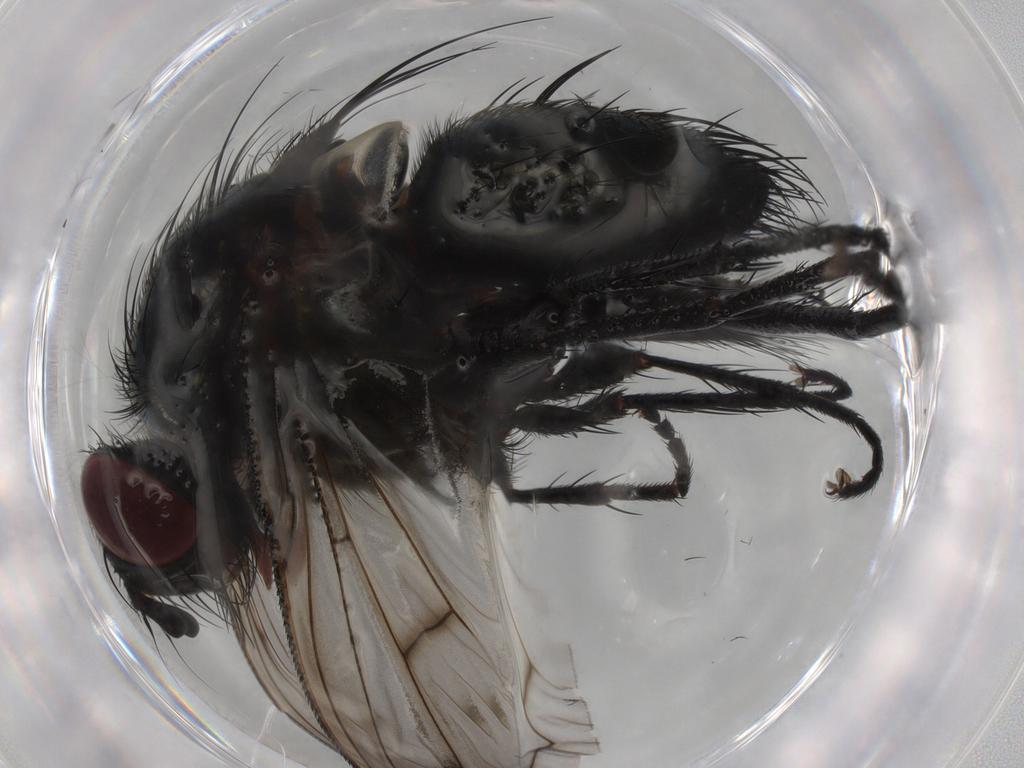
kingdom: Animalia
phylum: Arthropoda
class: Insecta
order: Diptera
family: Tachinidae
